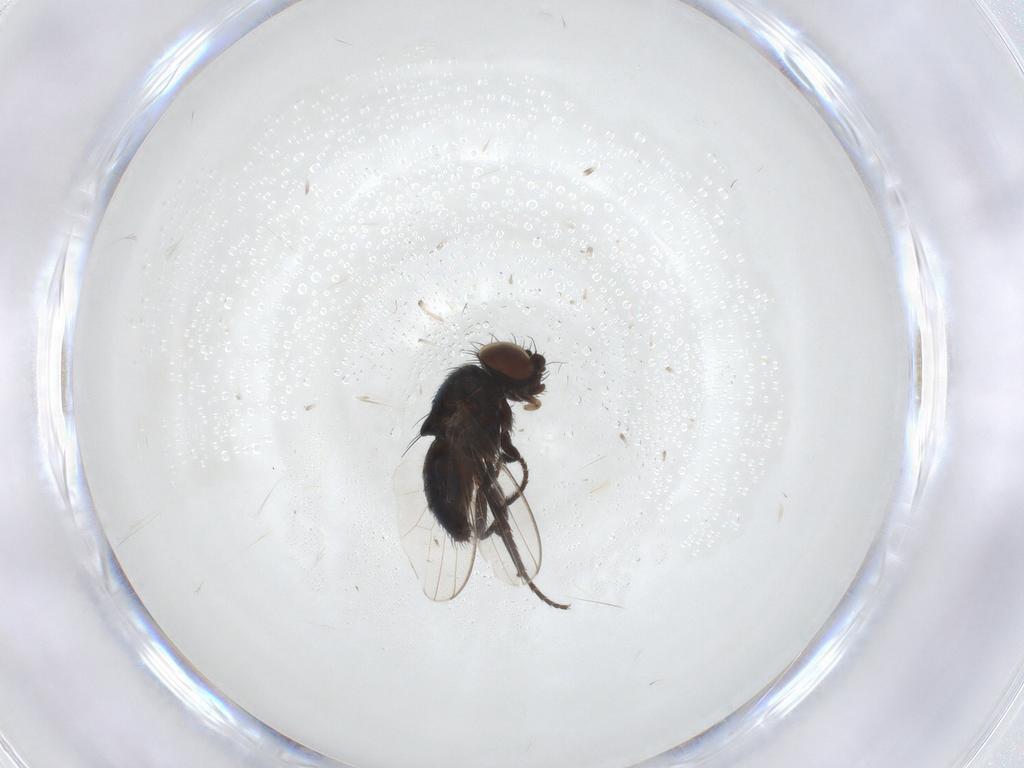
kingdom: Animalia
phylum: Arthropoda
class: Insecta
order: Diptera
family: Chloropidae
